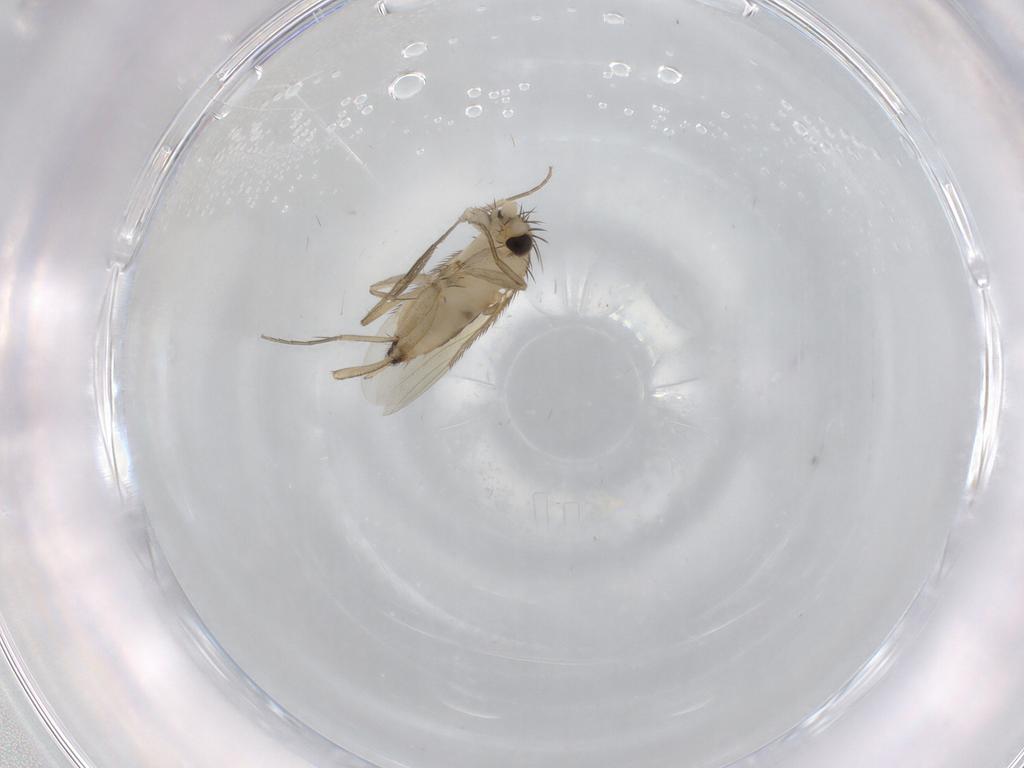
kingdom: Animalia
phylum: Arthropoda
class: Insecta
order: Diptera
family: Phoridae
